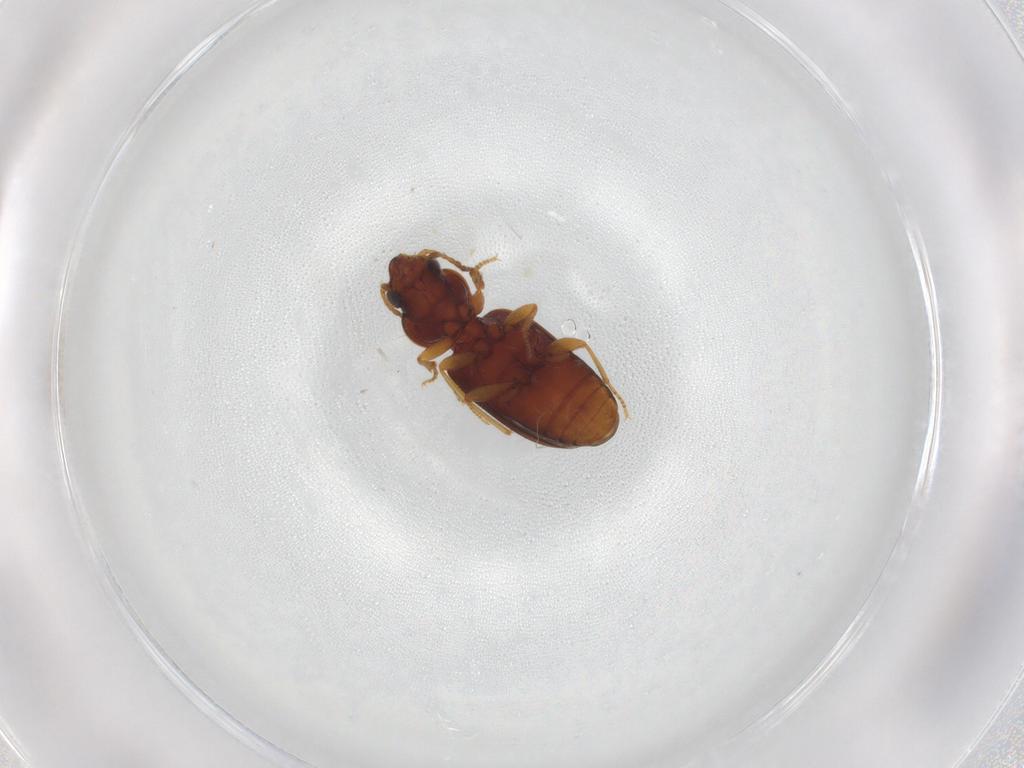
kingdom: Animalia
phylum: Arthropoda
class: Insecta
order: Coleoptera
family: Carabidae
